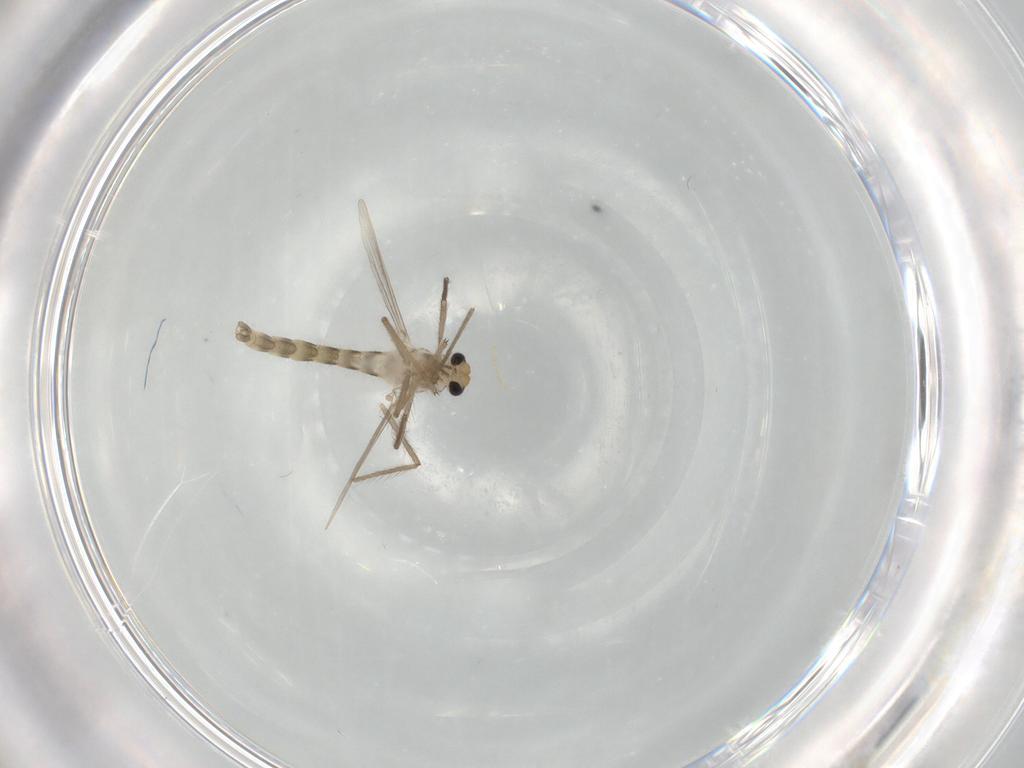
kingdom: Animalia
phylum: Arthropoda
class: Insecta
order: Diptera
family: Chironomidae
